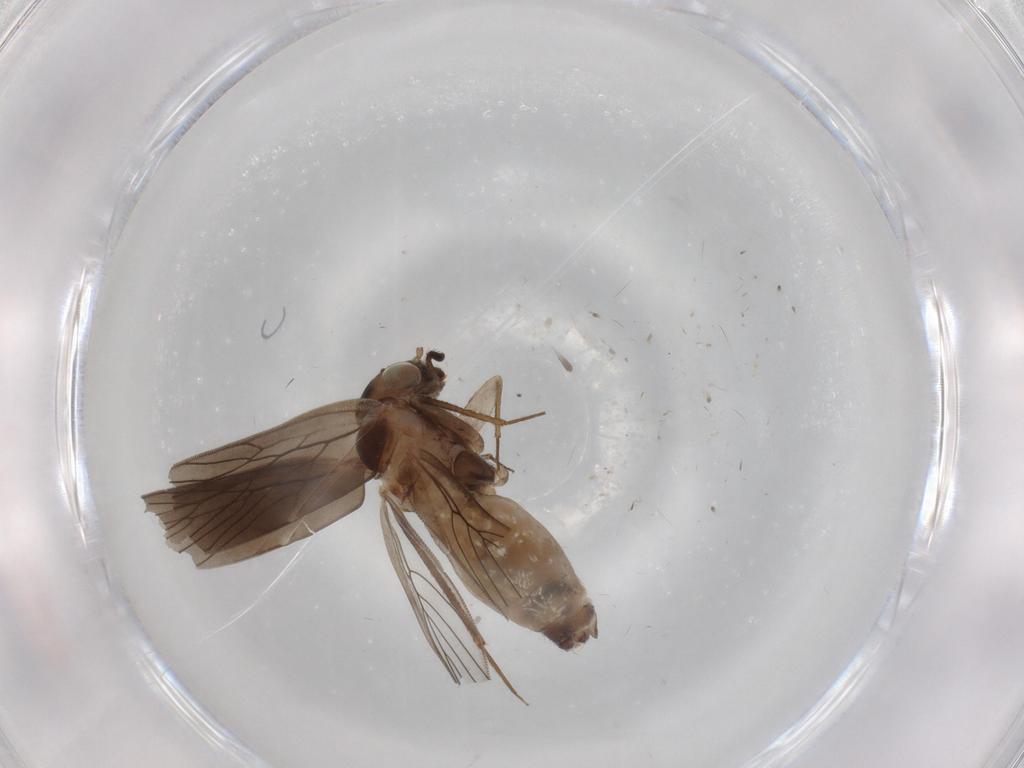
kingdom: Animalia
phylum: Arthropoda
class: Insecta
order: Psocodea
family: Lepidopsocidae
